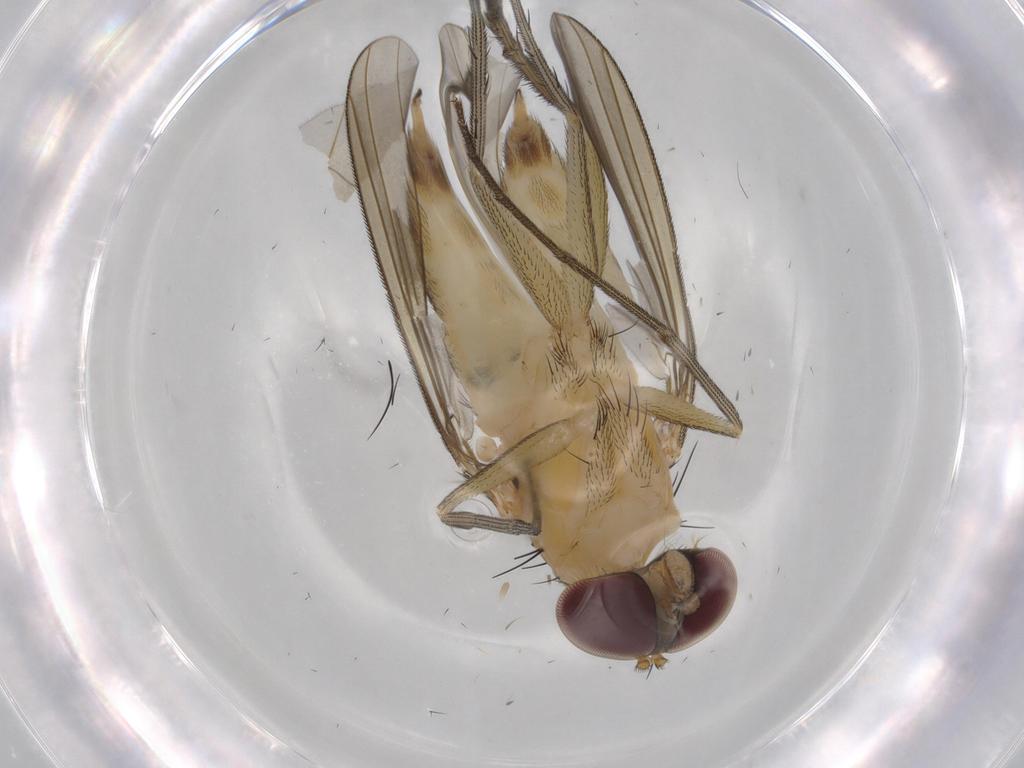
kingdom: Animalia
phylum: Arthropoda
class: Insecta
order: Diptera
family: Dolichopodidae
